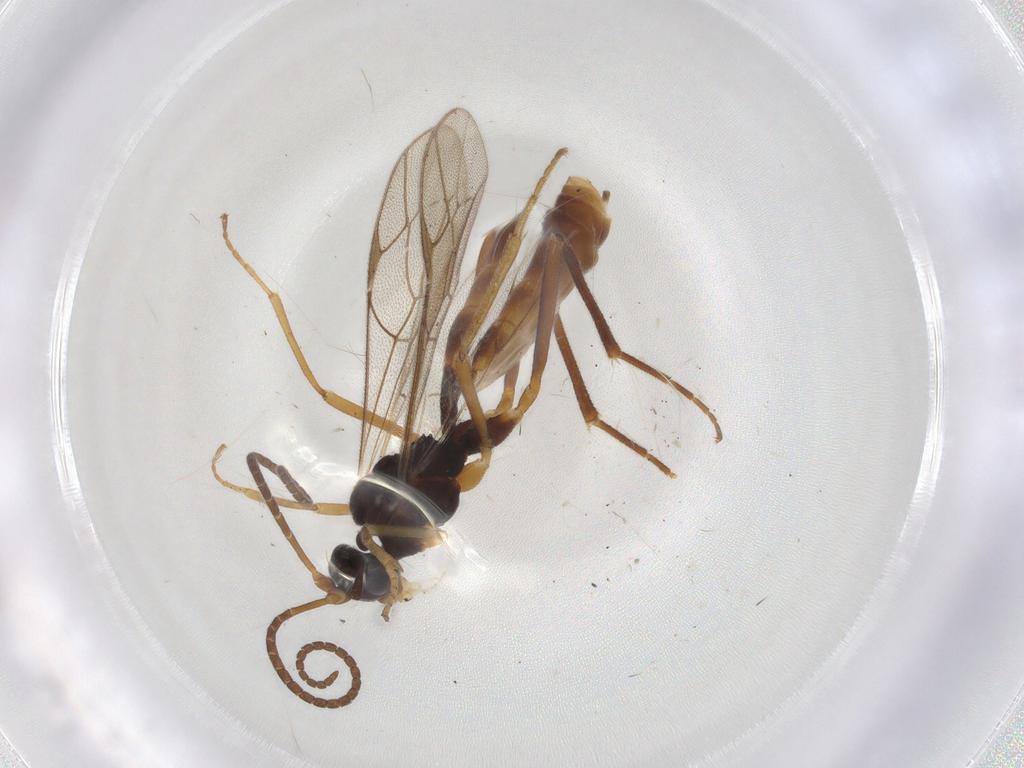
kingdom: Animalia
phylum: Arthropoda
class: Insecta
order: Hymenoptera
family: Ichneumonidae
